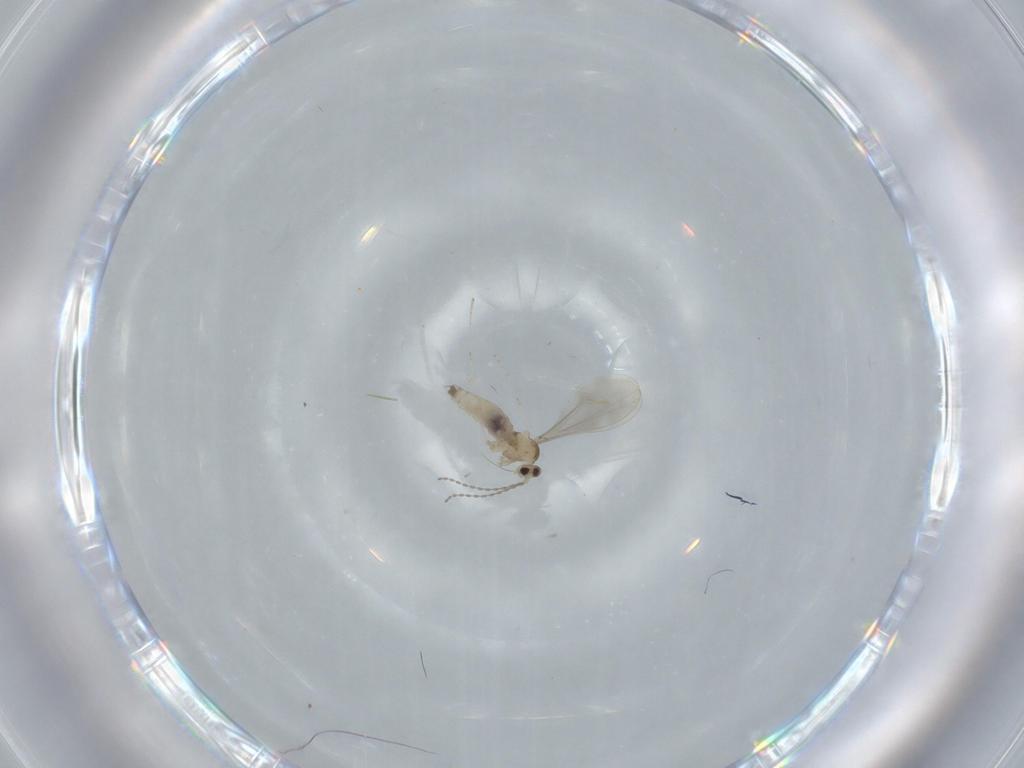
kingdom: Animalia
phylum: Arthropoda
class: Insecta
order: Diptera
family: Cecidomyiidae
